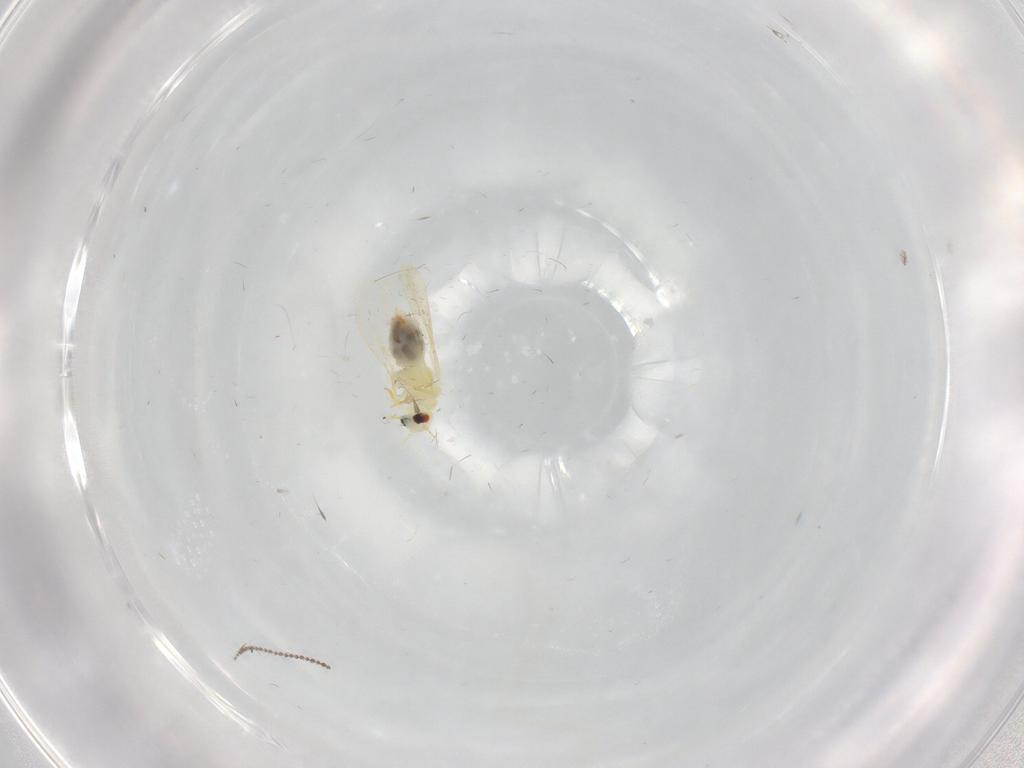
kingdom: Animalia
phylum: Arthropoda
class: Insecta
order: Hemiptera
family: Aleyrodidae
